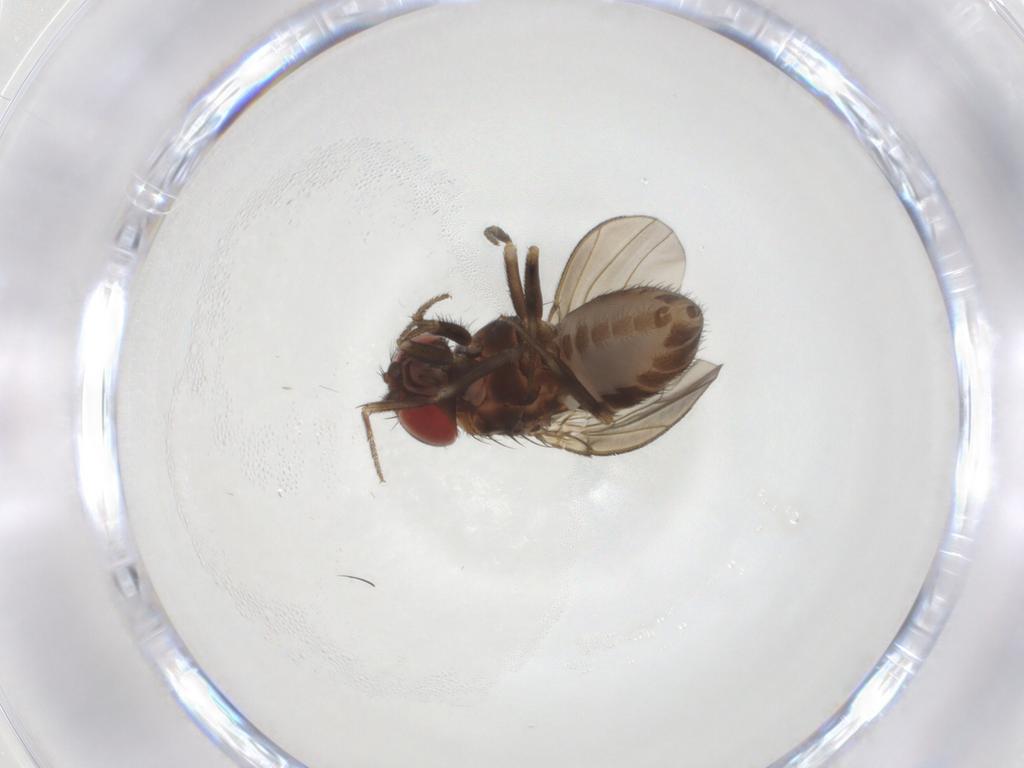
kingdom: Animalia
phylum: Arthropoda
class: Insecta
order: Diptera
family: Drosophilidae
